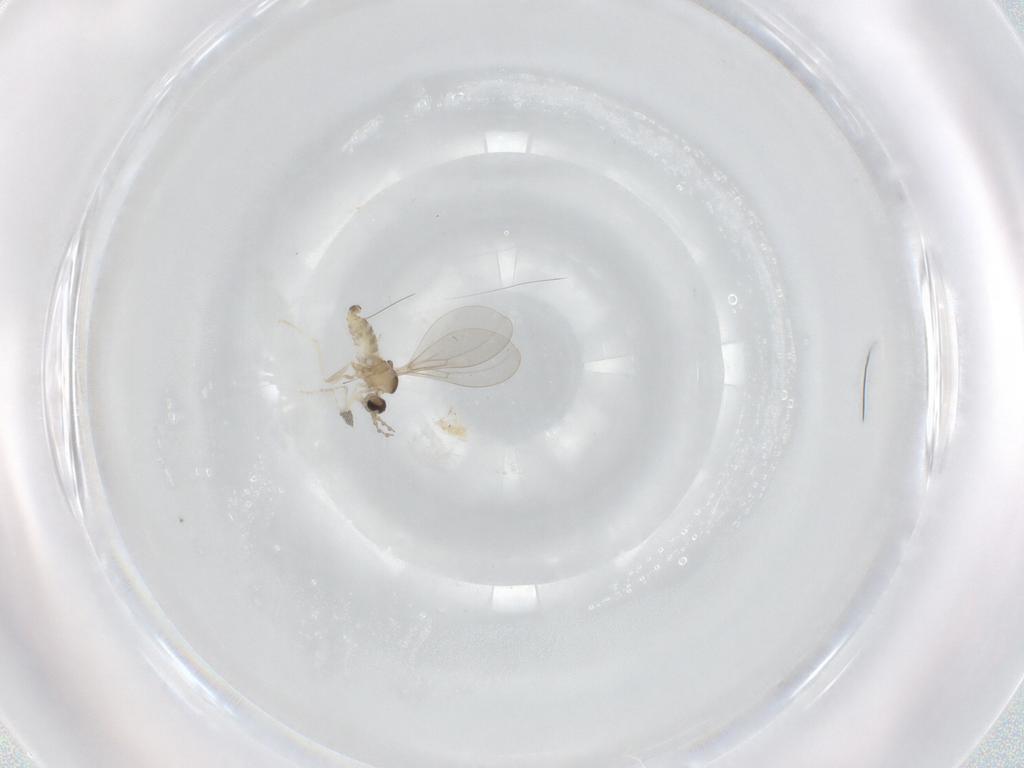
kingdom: Animalia
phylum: Arthropoda
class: Insecta
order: Diptera
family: Cecidomyiidae
